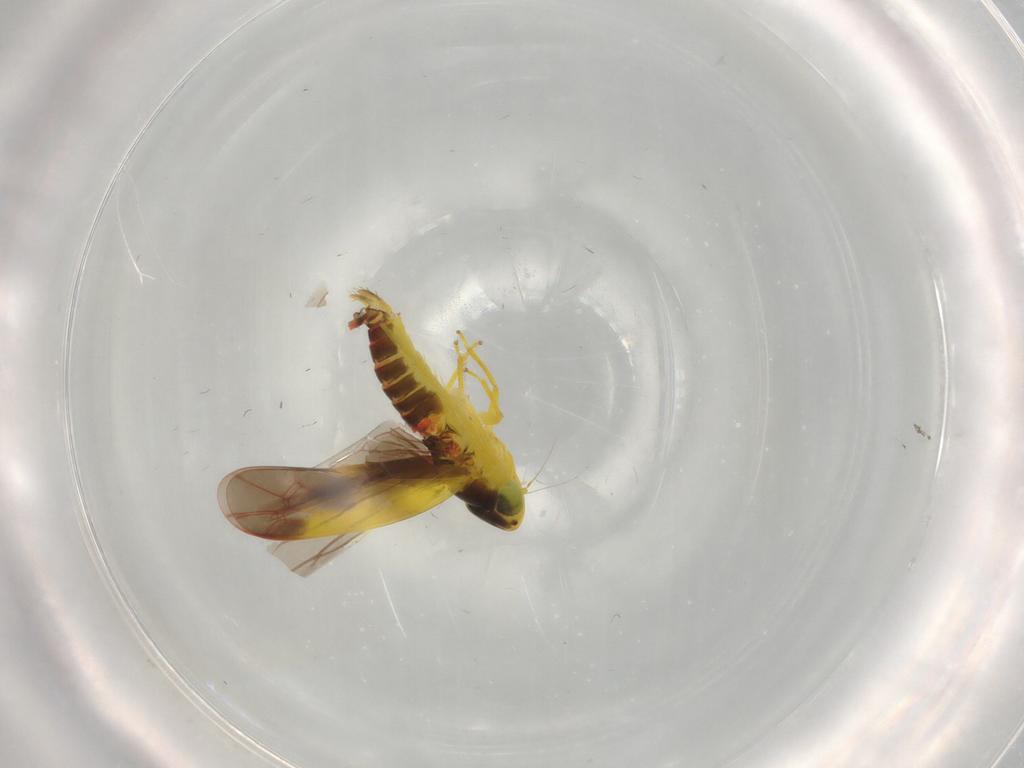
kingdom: Animalia
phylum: Arthropoda
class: Insecta
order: Hemiptera
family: Cicadellidae
